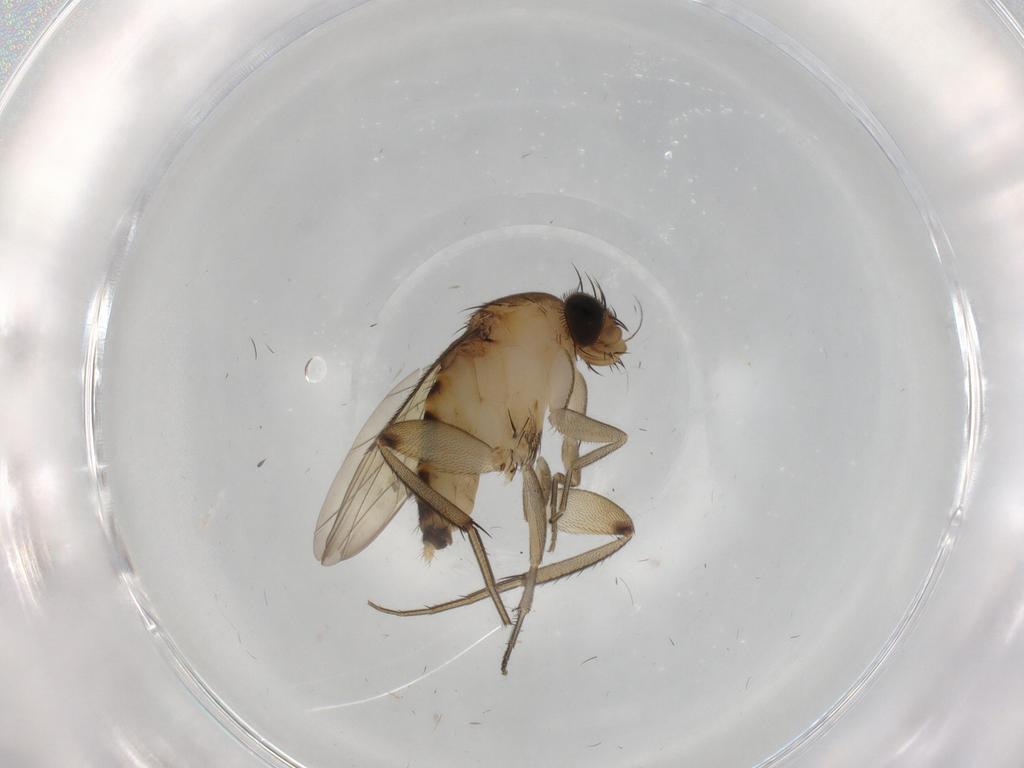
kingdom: Animalia
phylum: Arthropoda
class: Insecta
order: Diptera
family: Phoridae
